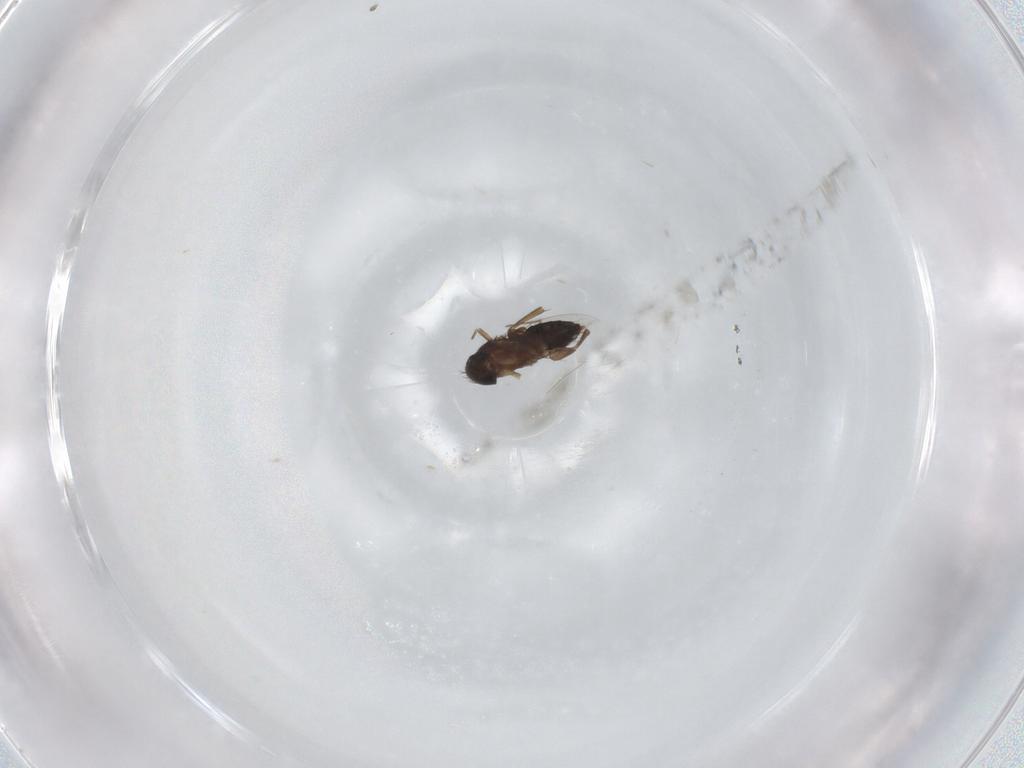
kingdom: Animalia
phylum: Arthropoda
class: Insecta
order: Diptera
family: Phoridae
